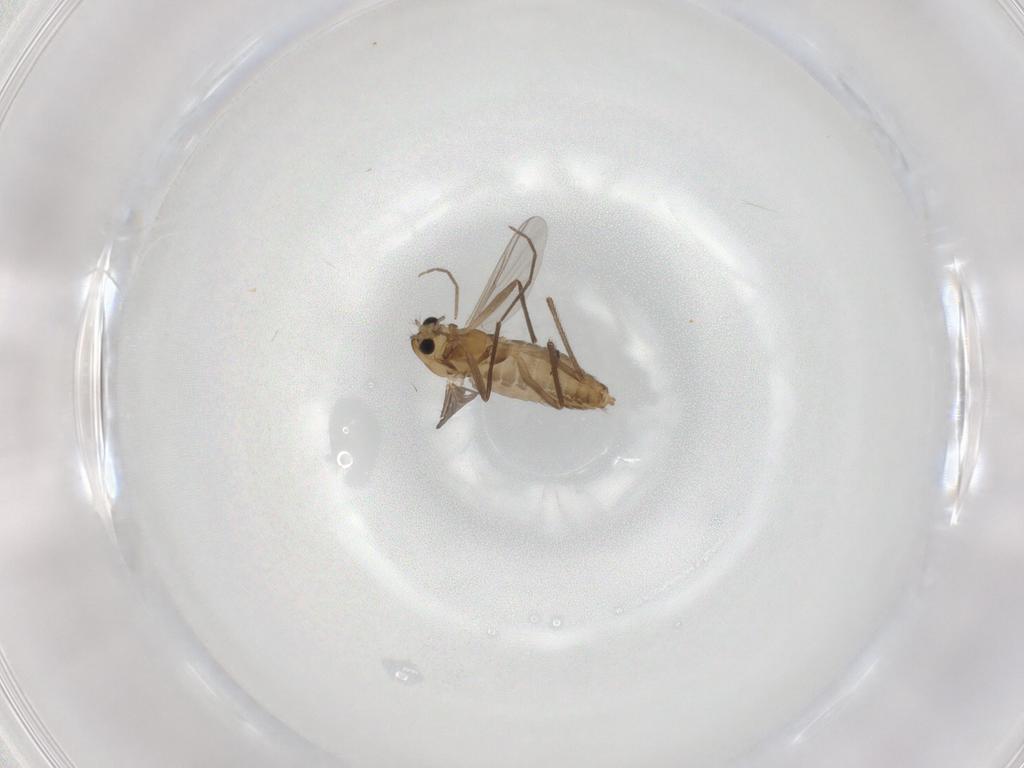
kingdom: Animalia
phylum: Arthropoda
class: Insecta
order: Diptera
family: Chironomidae
